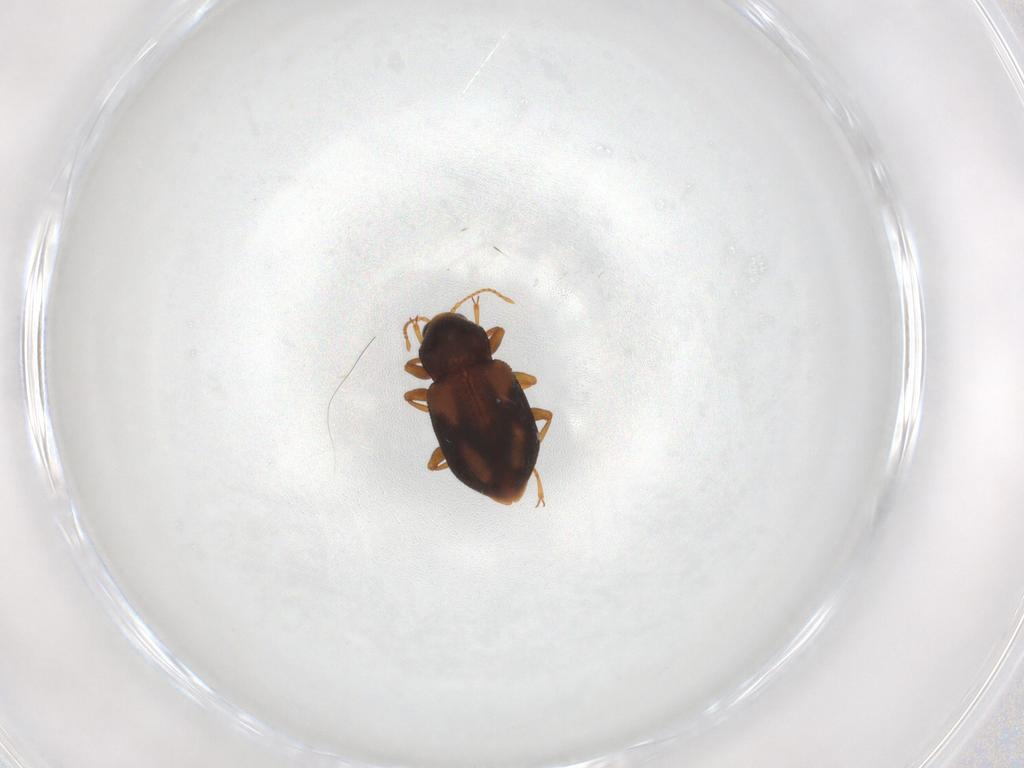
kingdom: Animalia
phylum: Arthropoda
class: Insecta
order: Coleoptera
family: Elmidae
